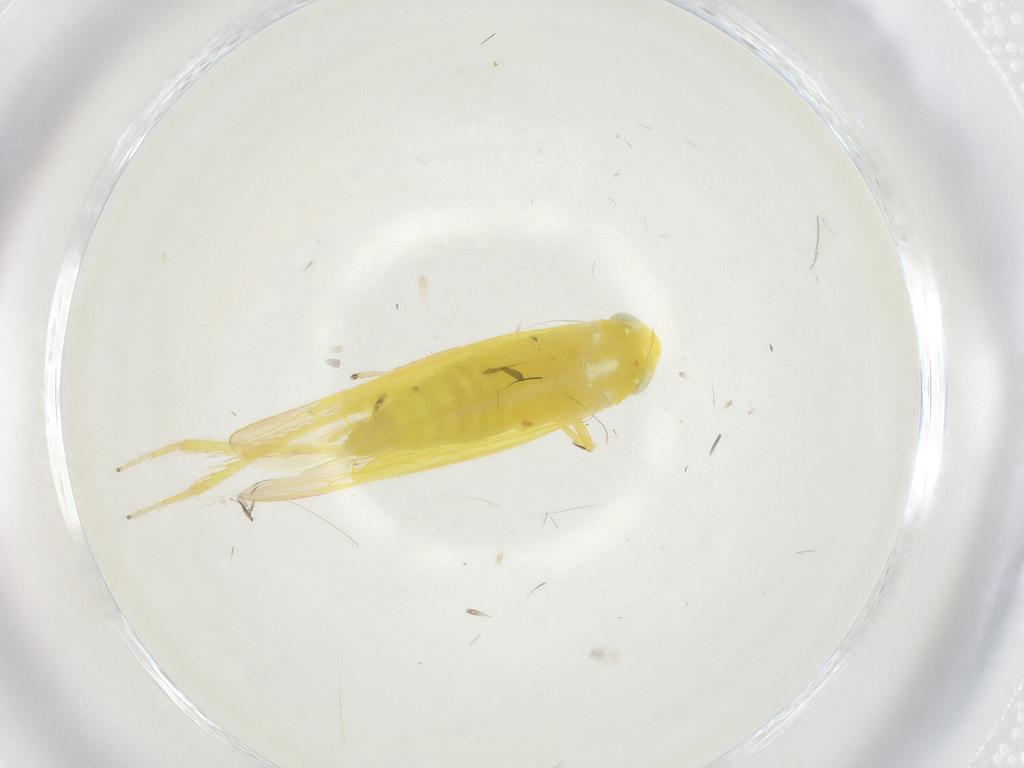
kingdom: Animalia
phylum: Arthropoda
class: Insecta
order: Hemiptera
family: Cicadellidae
